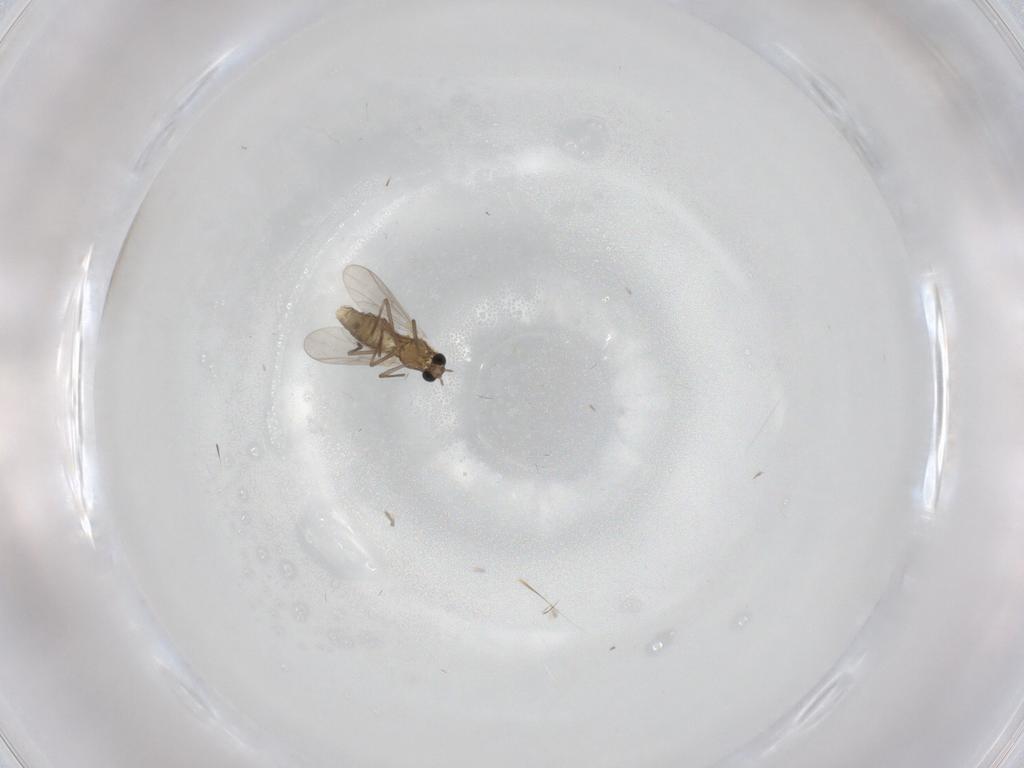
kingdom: Animalia
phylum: Arthropoda
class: Insecta
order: Diptera
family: Chironomidae
